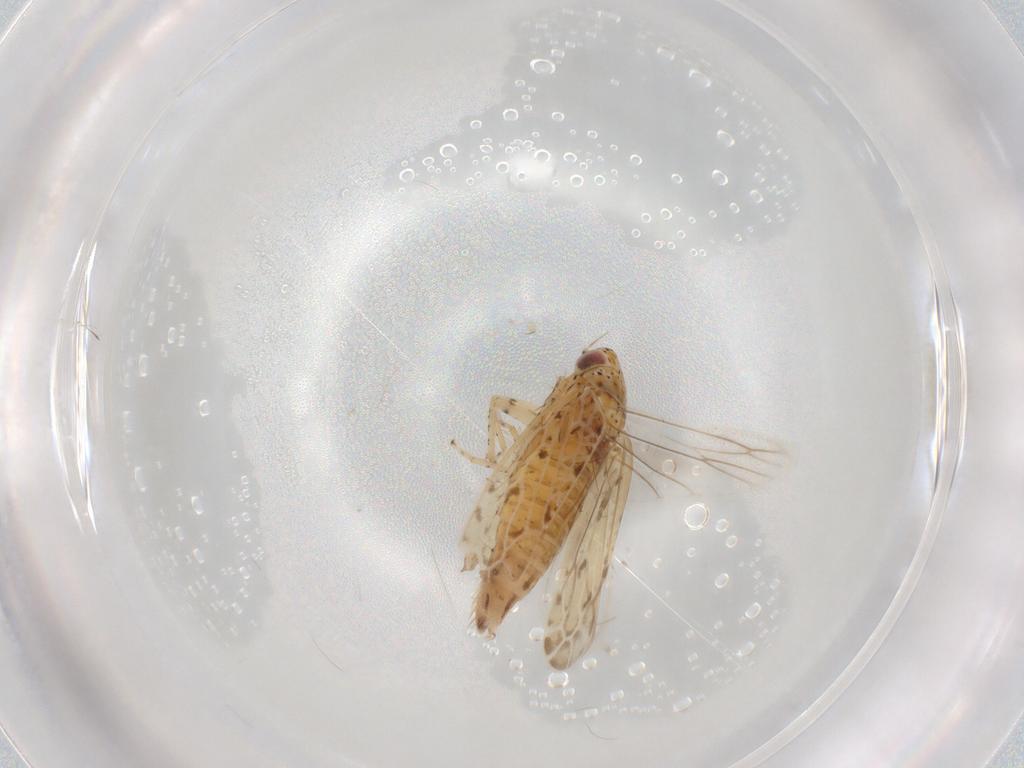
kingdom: Animalia
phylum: Arthropoda
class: Insecta
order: Hemiptera
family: Cicadellidae
